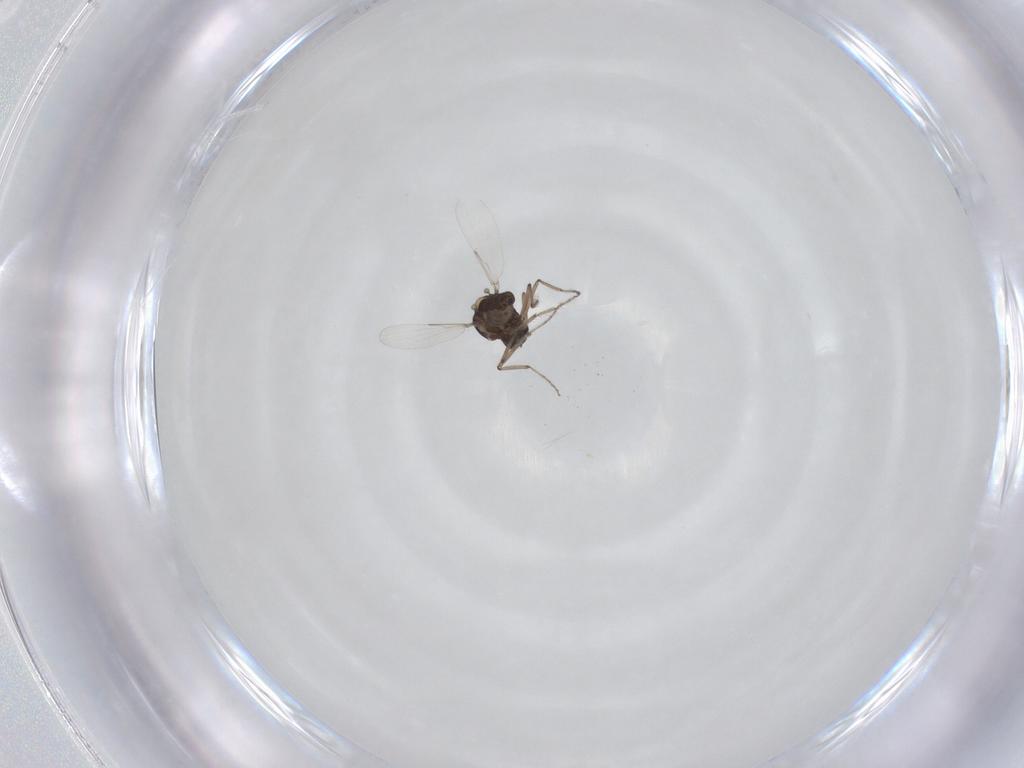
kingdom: Animalia
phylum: Arthropoda
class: Insecta
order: Diptera
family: Ceratopogonidae
